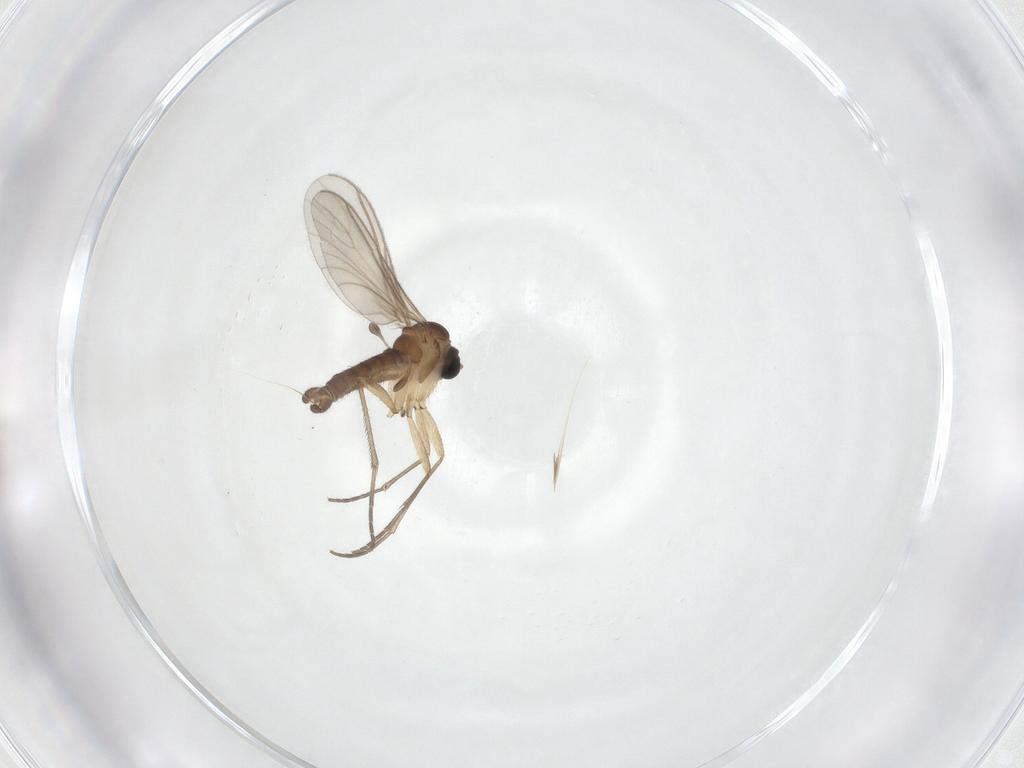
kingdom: Animalia
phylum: Arthropoda
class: Insecta
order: Diptera
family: Sciaridae
